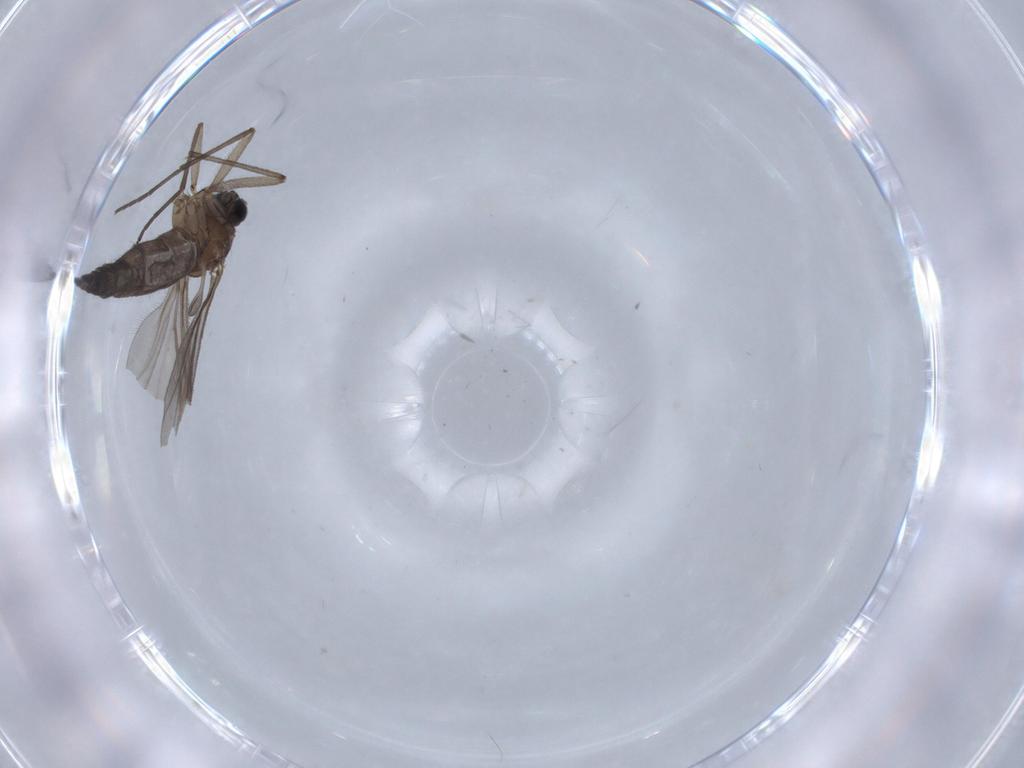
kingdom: Animalia
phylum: Arthropoda
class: Insecta
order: Diptera
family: Sciaridae
